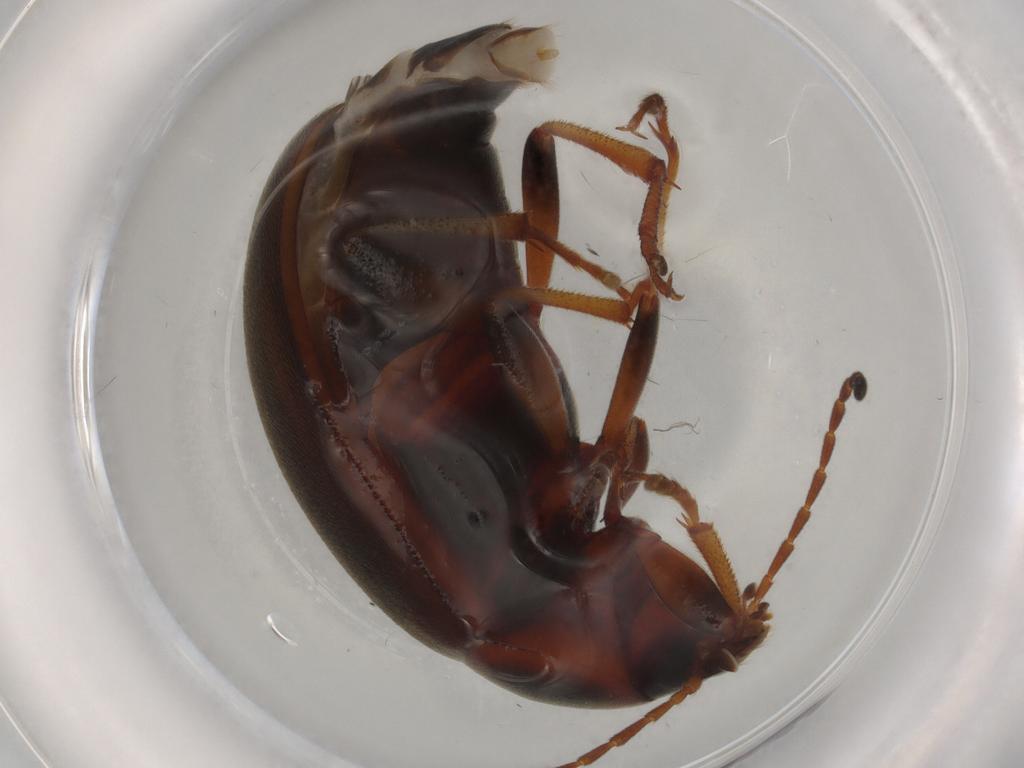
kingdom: Animalia
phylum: Arthropoda
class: Insecta
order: Coleoptera
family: Tenebrionidae
